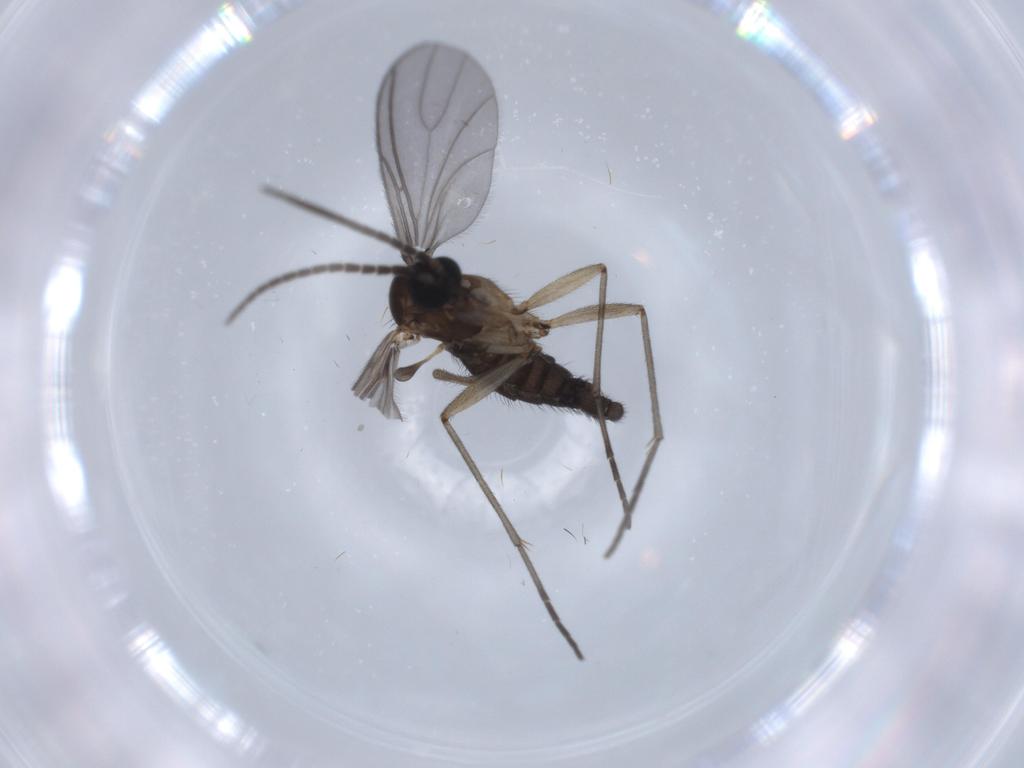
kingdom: Animalia
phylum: Arthropoda
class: Insecta
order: Diptera
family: Sciaridae
